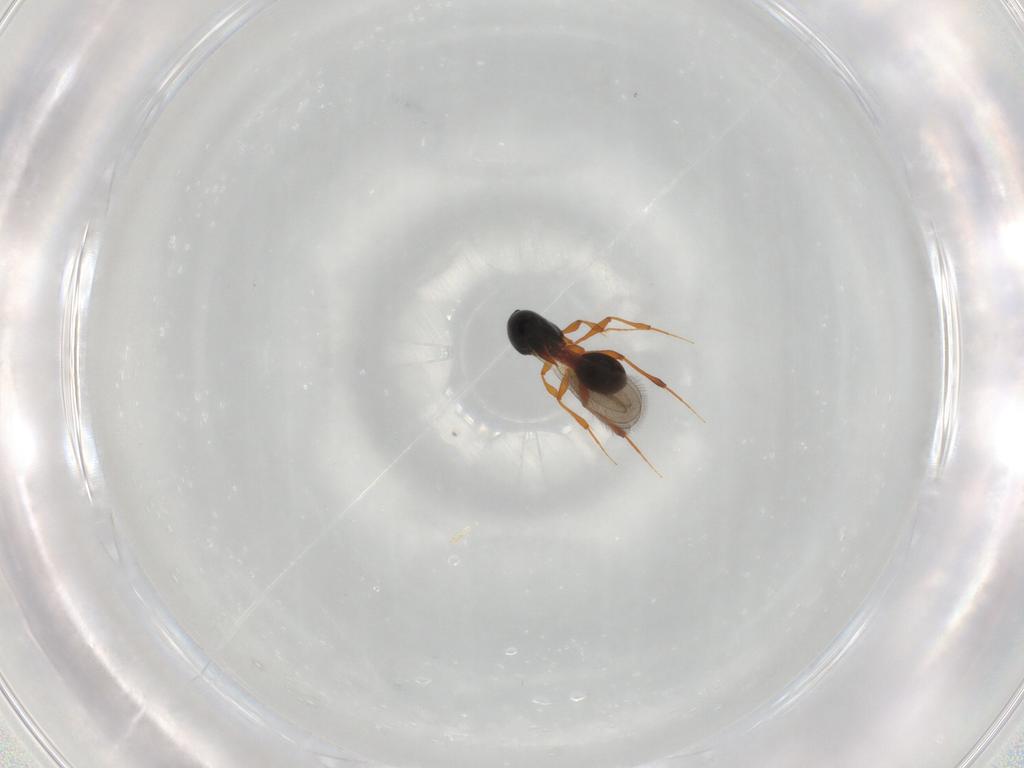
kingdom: Animalia
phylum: Arthropoda
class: Insecta
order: Hymenoptera
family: Platygastridae
